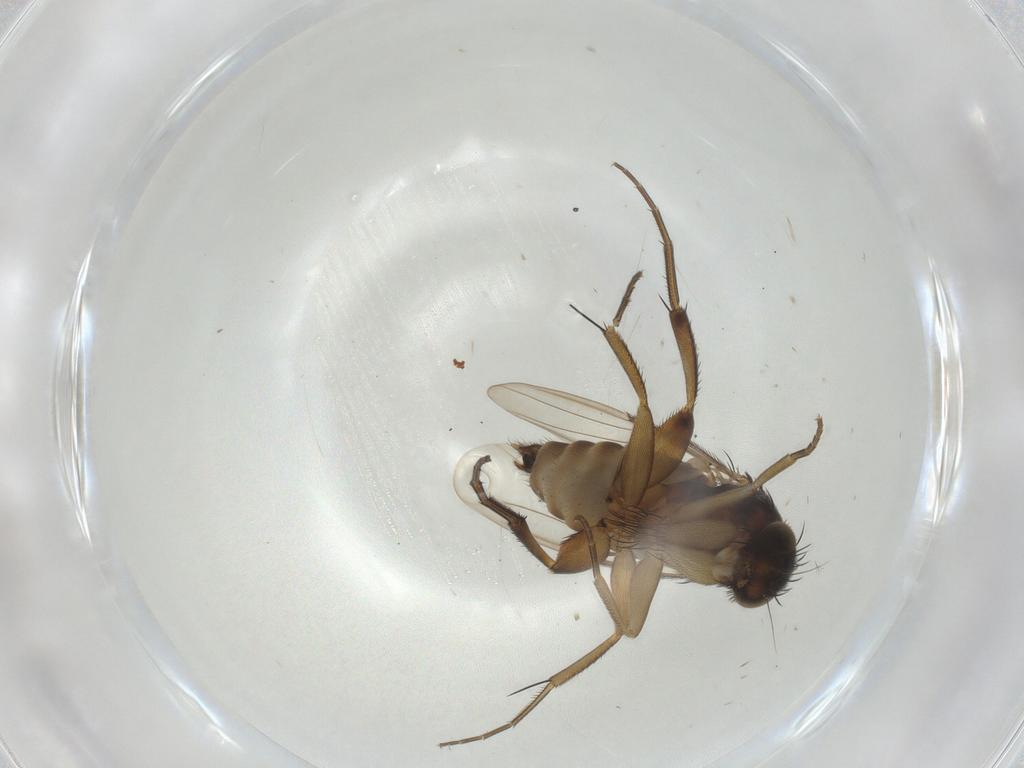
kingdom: Animalia
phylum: Arthropoda
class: Insecta
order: Diptera
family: Phoridae
